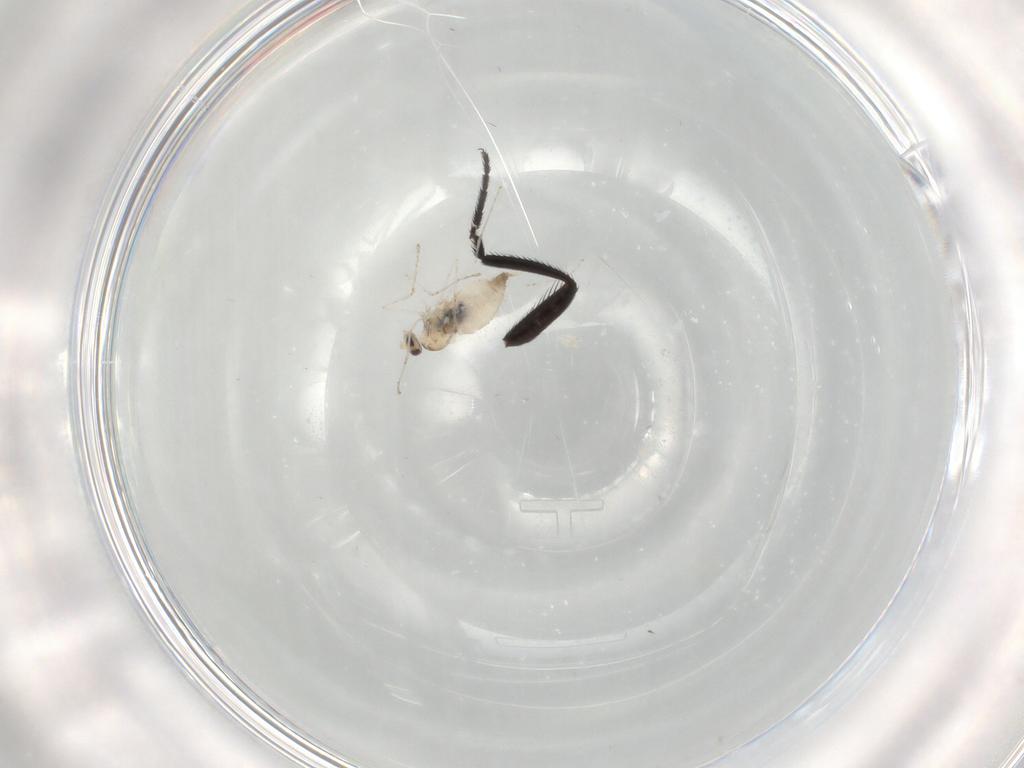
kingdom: Animalia
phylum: Arthropoda
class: Insecta
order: Diptera
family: Milichiidae
